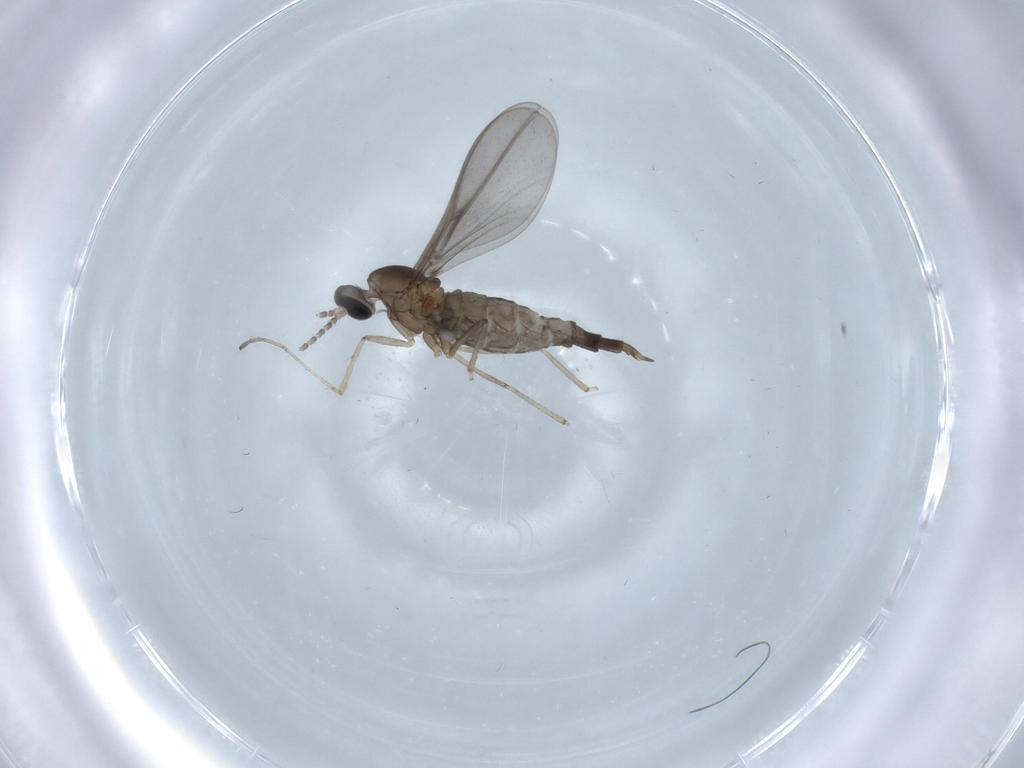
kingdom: Animalia
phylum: Arthropoda
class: Insecta
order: Diptera
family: Cecidomyiidae
